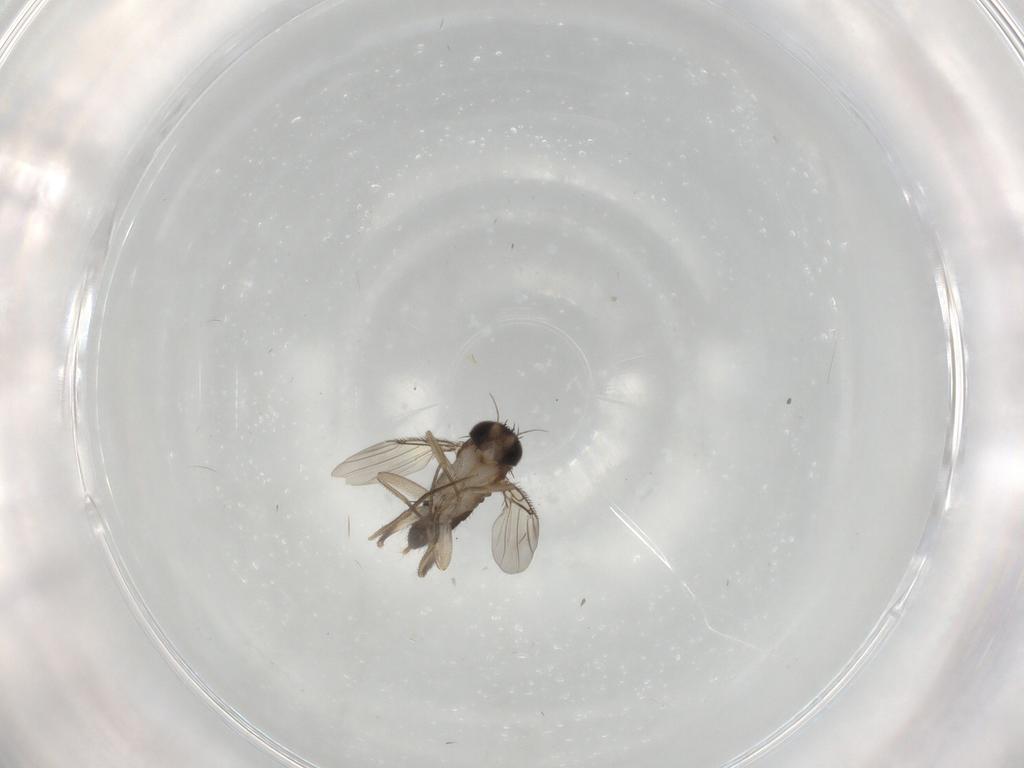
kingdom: Animalia
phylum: Arthropoda
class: Insecta
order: Diptera
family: Phoridae
